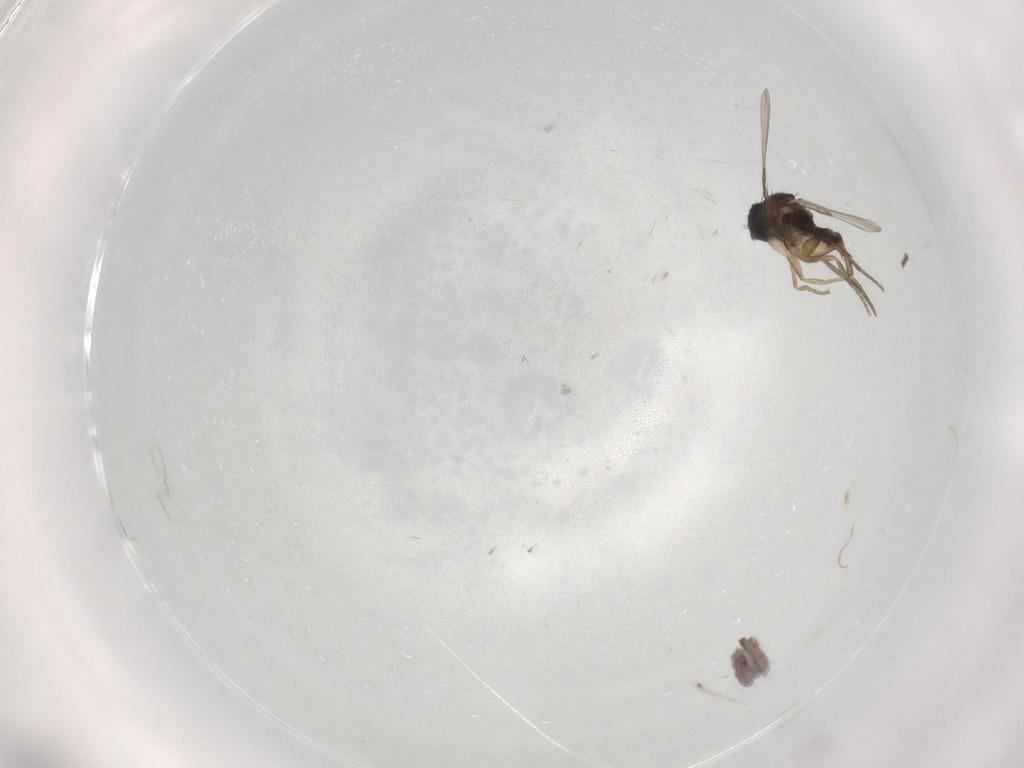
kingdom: Animalia
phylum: Arthropoda
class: Insecta
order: Diptera
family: Phoridae
